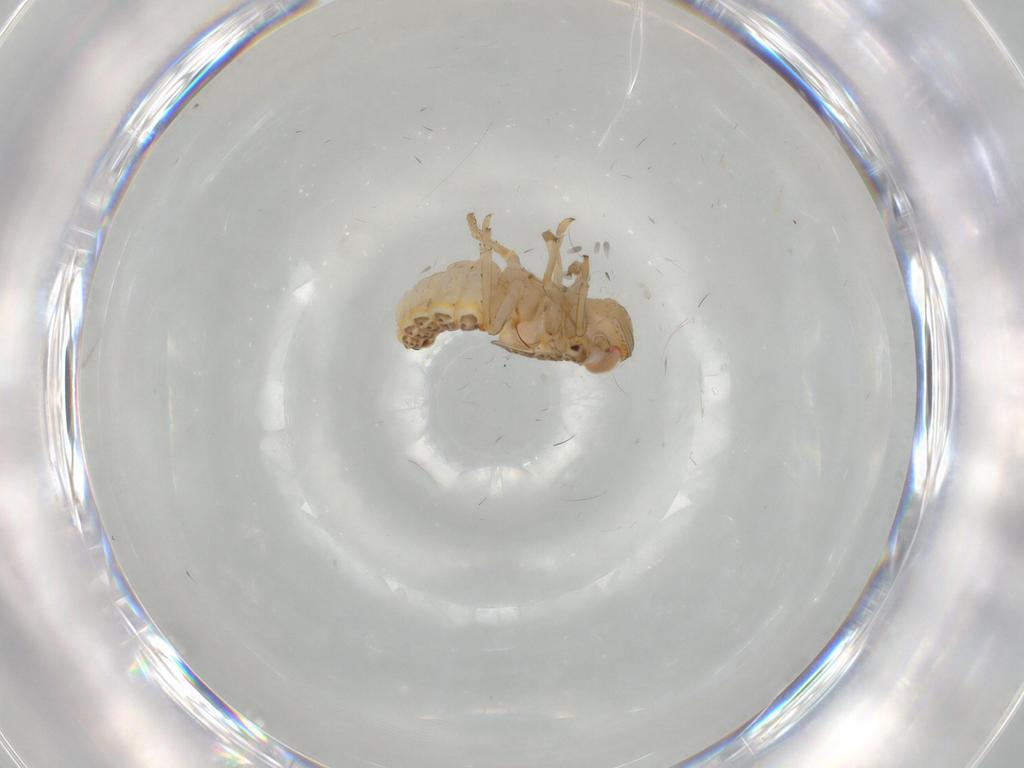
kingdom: Animalia
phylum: Arthropoda
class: Insecta
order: Hemiptera
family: Issidae
